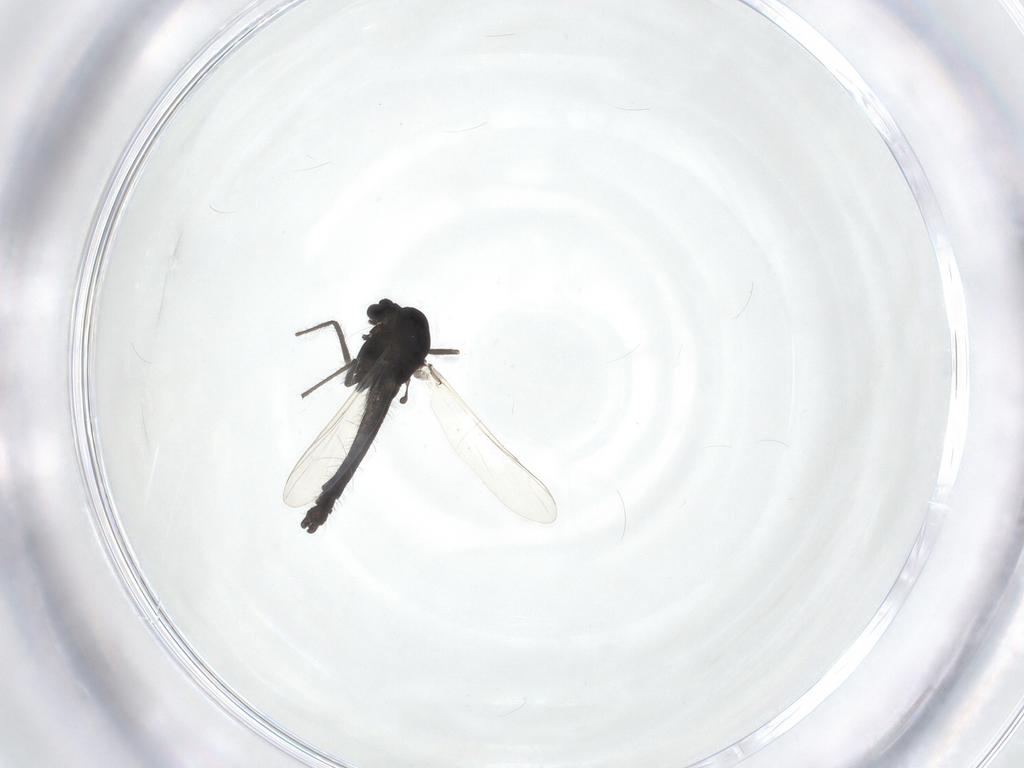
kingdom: Animalia
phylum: Arthropoda
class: Insecta
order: Diptera
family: Chironomidae
